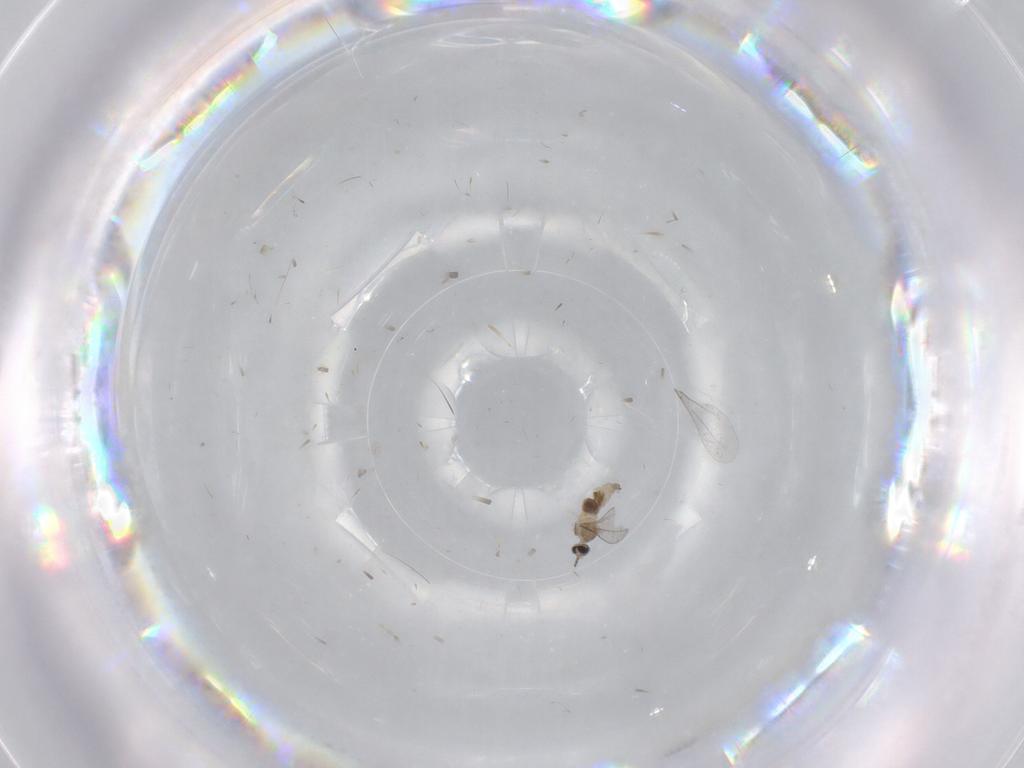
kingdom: Animalia
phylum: Arthropoda
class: Insecta
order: Diptera
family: Cecidomyiidae
